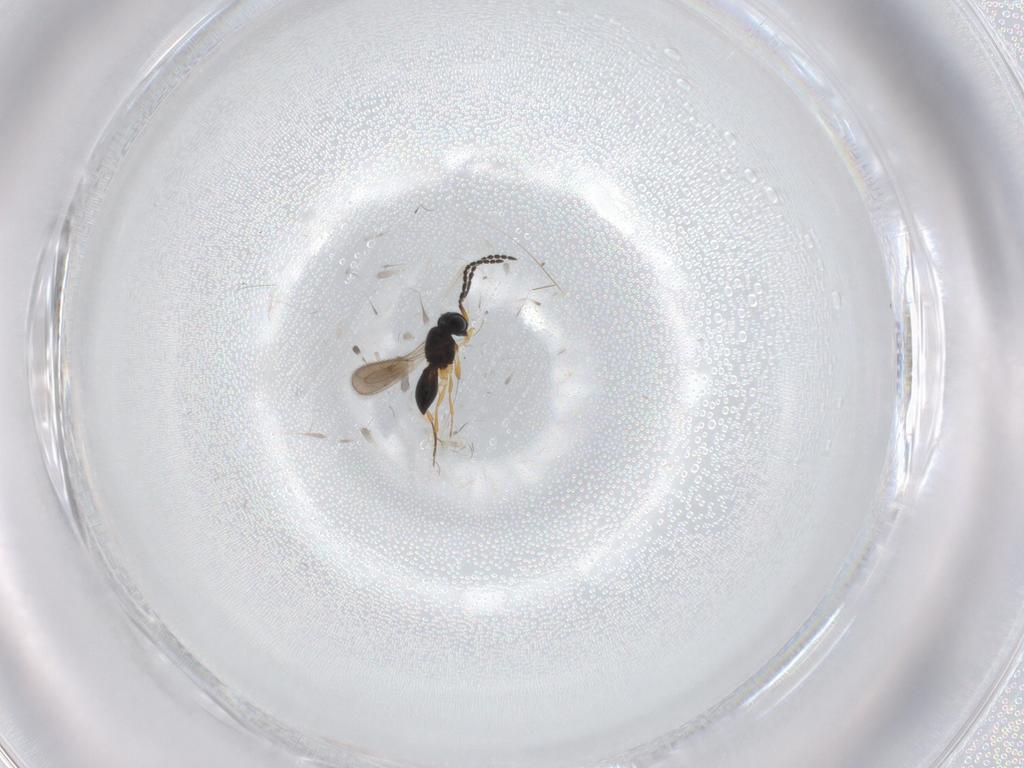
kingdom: Animalia
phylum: Arthropoda
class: Insecta
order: Hymenoptera
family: Scelionidae
